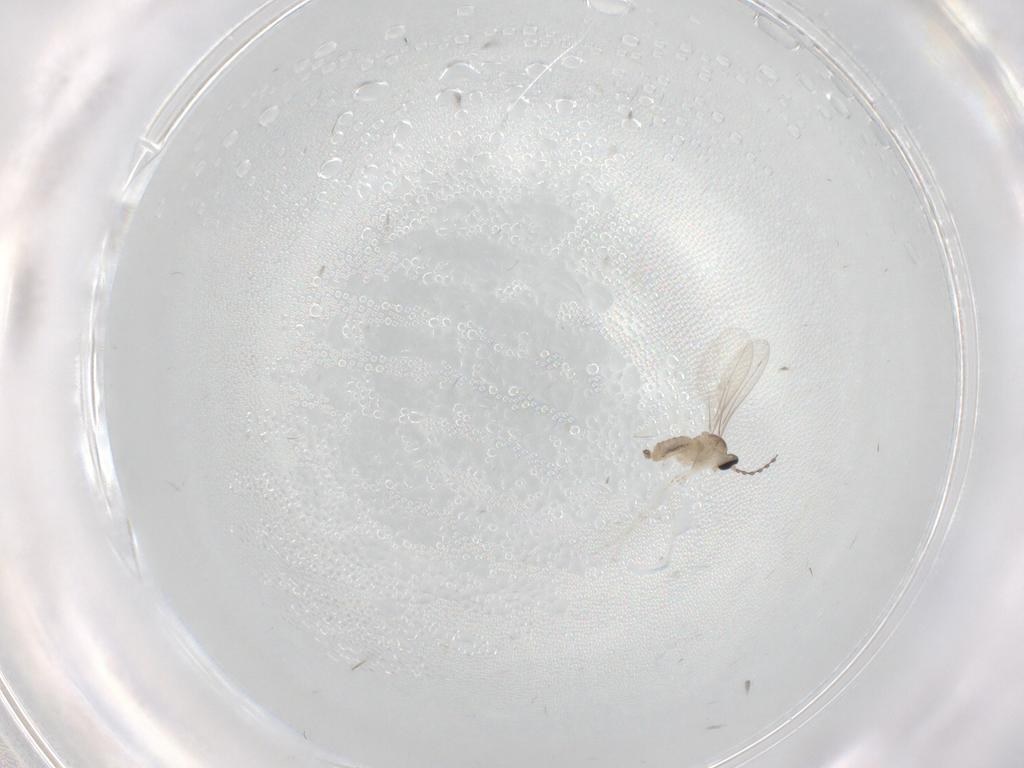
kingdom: Animalia
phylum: Arthropoda
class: Insecta
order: Diptera
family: Cecidomyiidae
